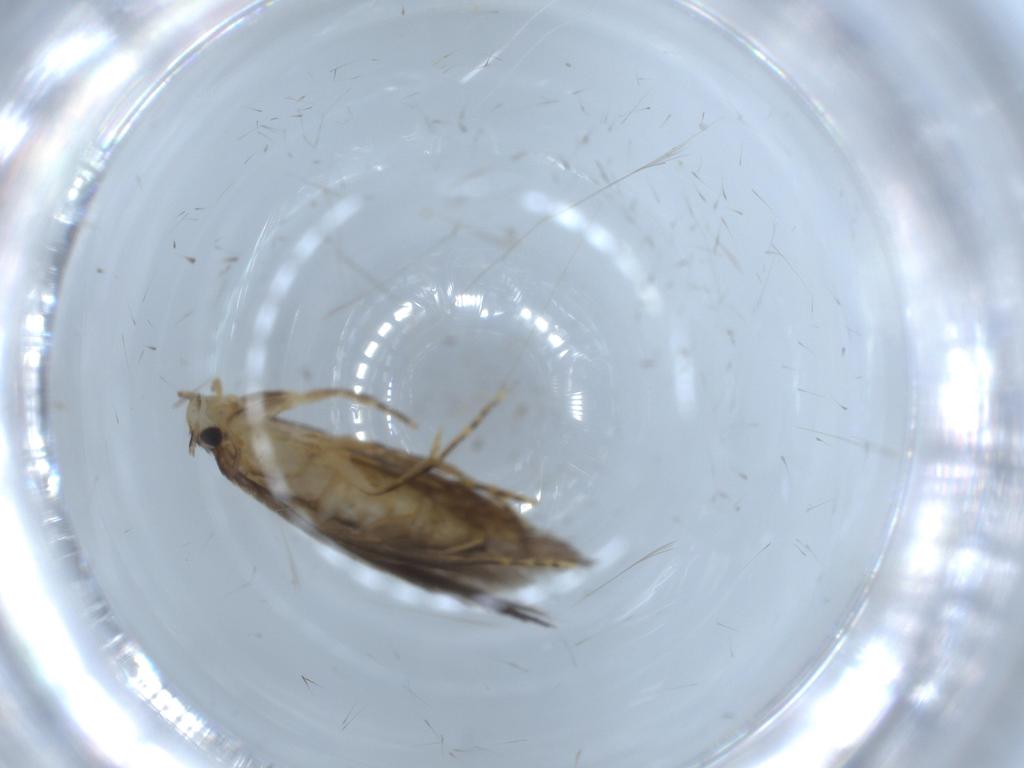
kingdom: Animalia
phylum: Arthropoda
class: Insecta
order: Lepidoptera
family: Tineidae
